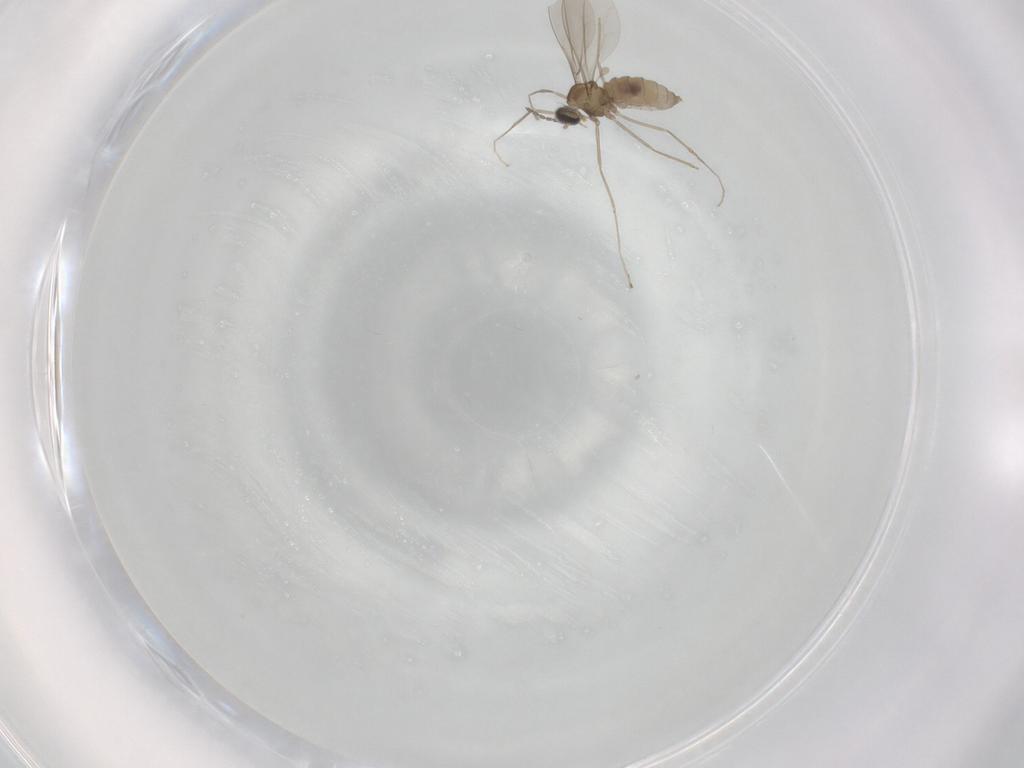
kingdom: Animalia
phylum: Arthropoda
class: Insecta
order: Diptera
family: Cecidomyiidae
